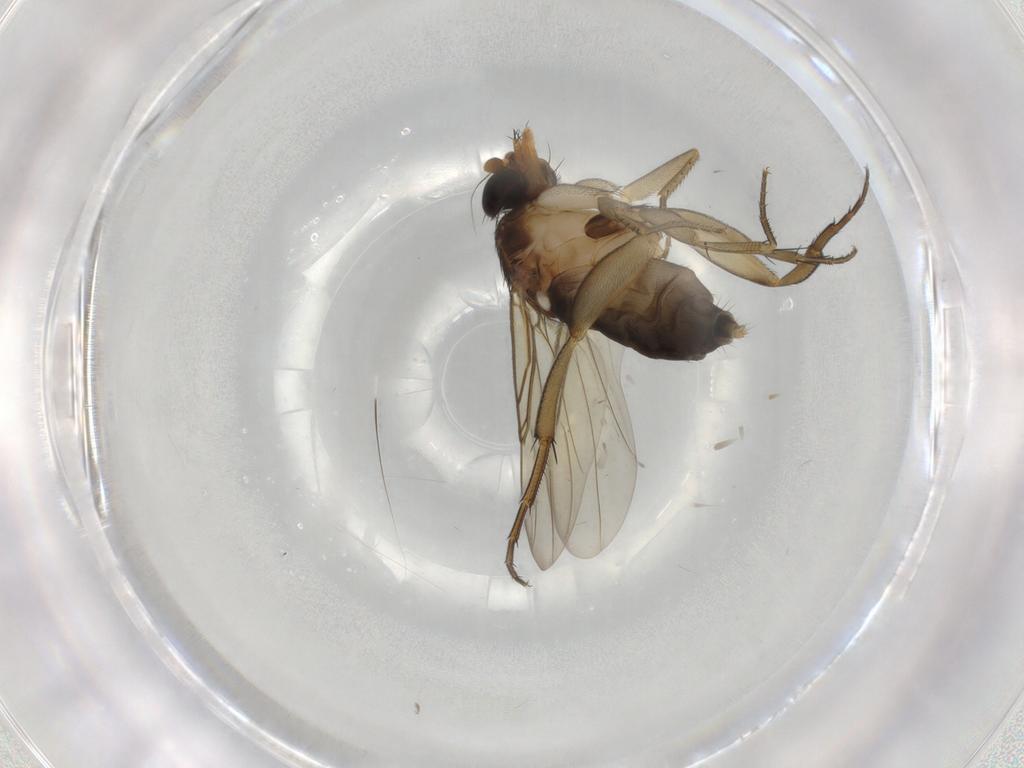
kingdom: Animalia
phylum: Arthropoda
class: Insecta
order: Diptera
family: Phoridae
